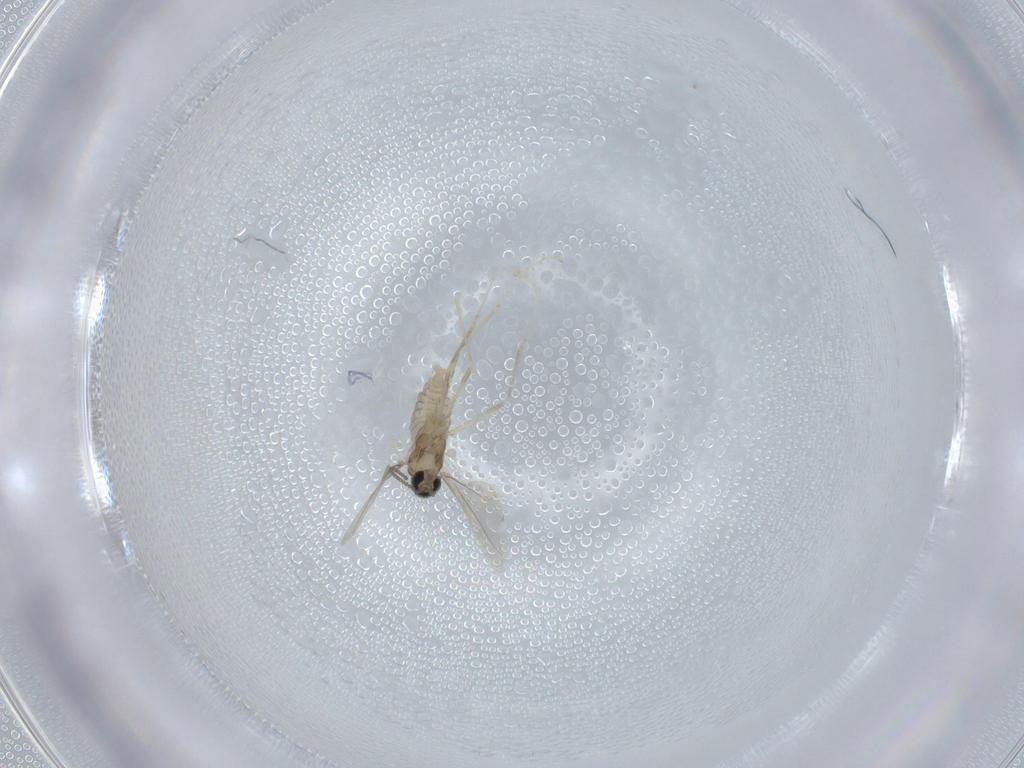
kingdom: Animalia
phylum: Arthropoda
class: Insecta
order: Diptera
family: Cecidomyiidae
